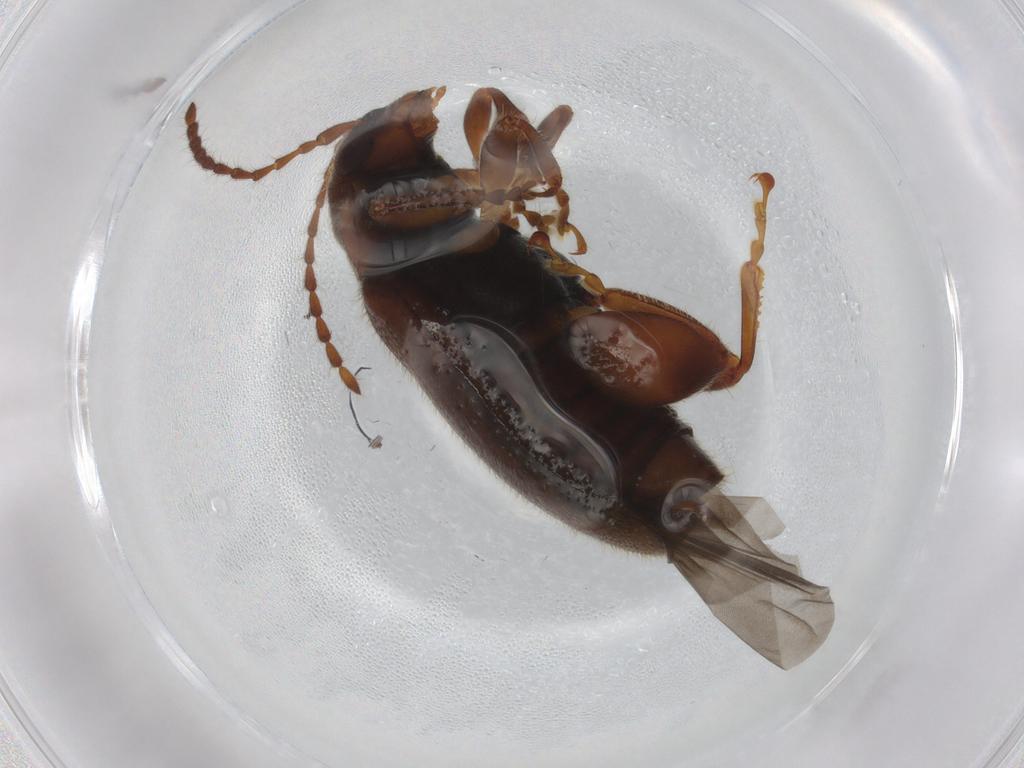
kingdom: Animalia
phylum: Arthropoda
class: Insecta
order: Coleoptera
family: Chrysomelidae
